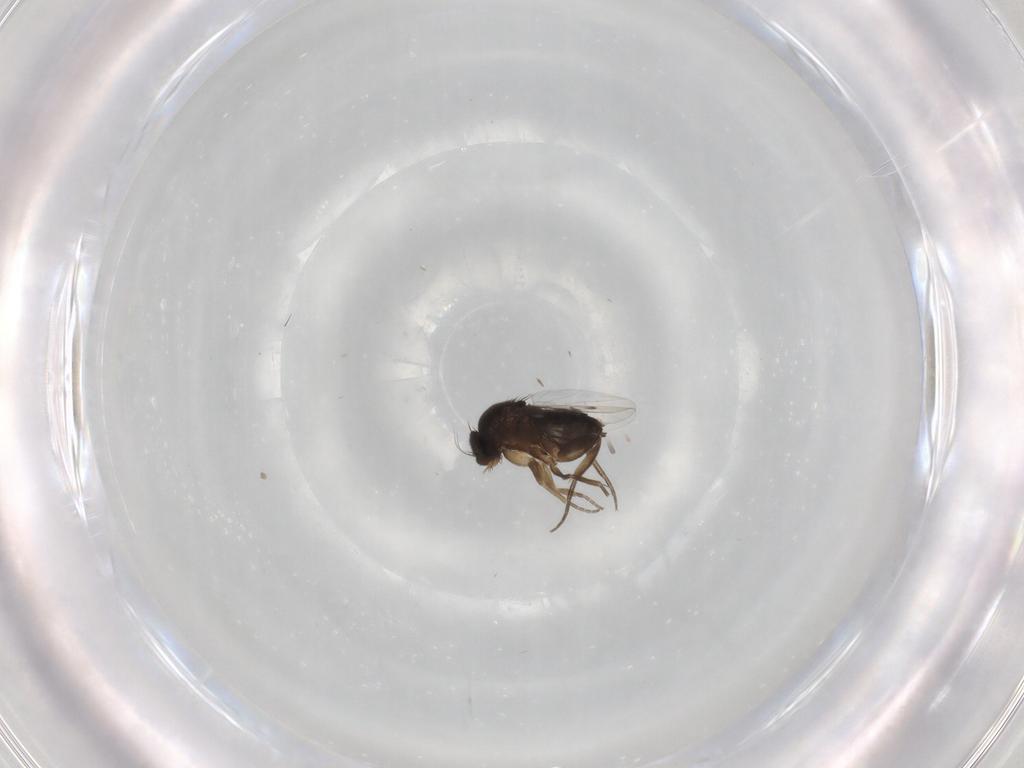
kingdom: Animalia
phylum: Arthropoda
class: Insecta
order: Diptera
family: Phoridae
